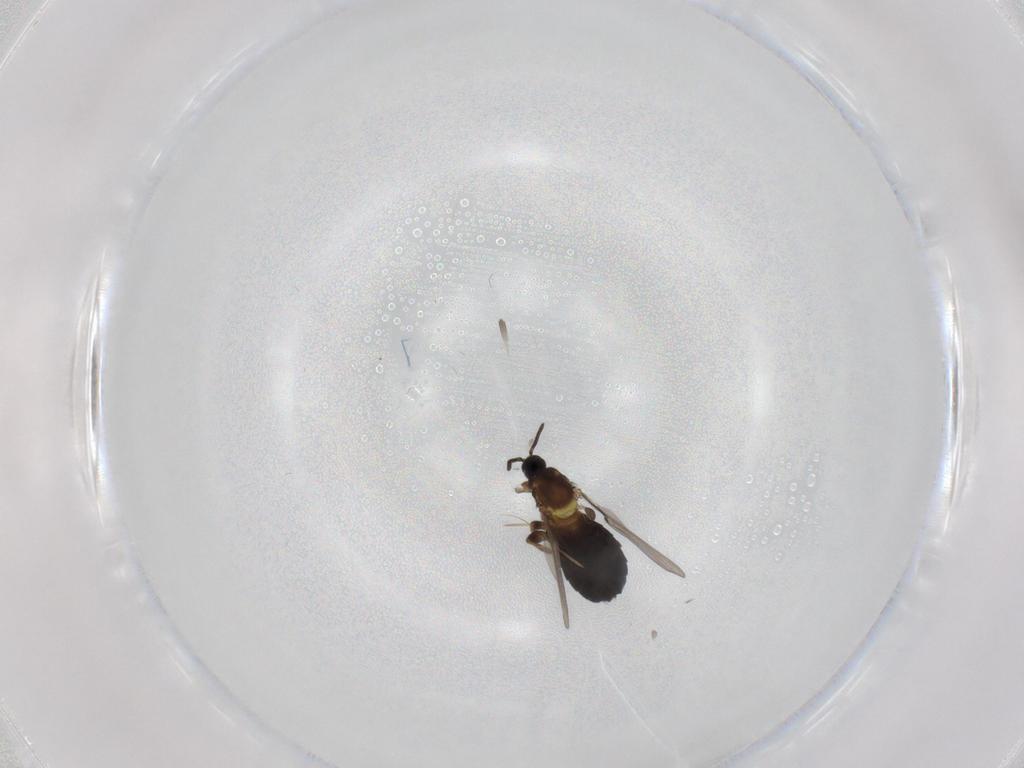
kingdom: Animalia
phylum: Arthropoda
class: Insecta
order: Diptera
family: Scatopsidae
